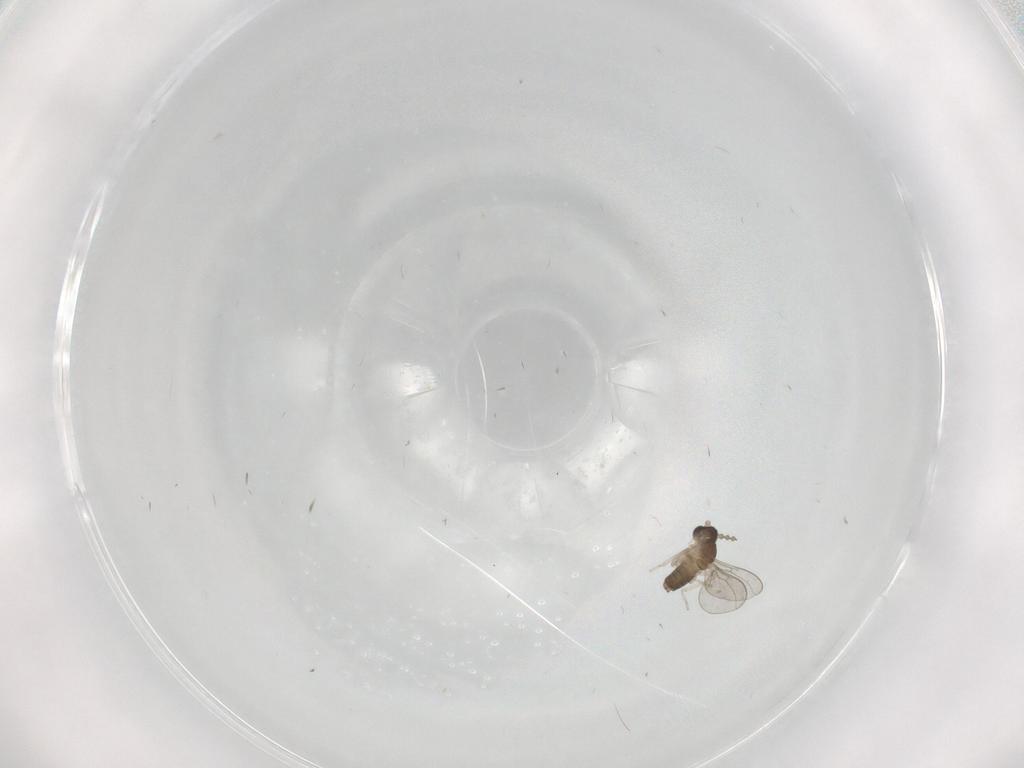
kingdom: Animalia
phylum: Arthropoda
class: Insecta
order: Diptera
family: Cecidomyiidae
